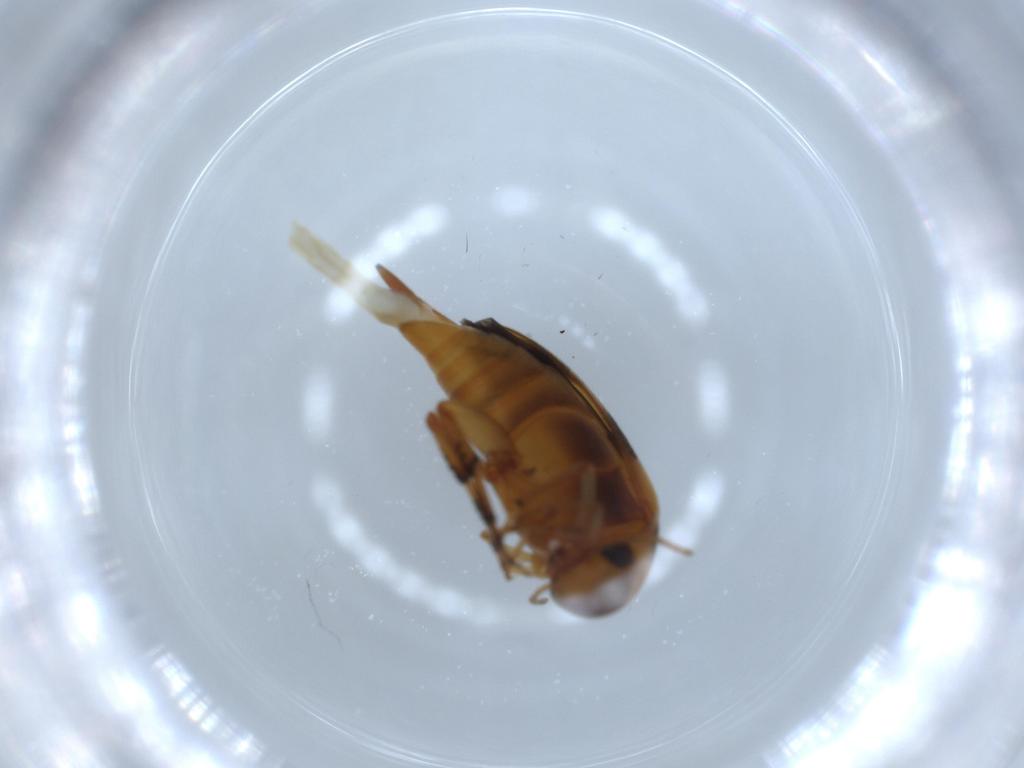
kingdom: Animalia
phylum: Arthropoda
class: Insecta
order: Coleoptera
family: Mordellidae
